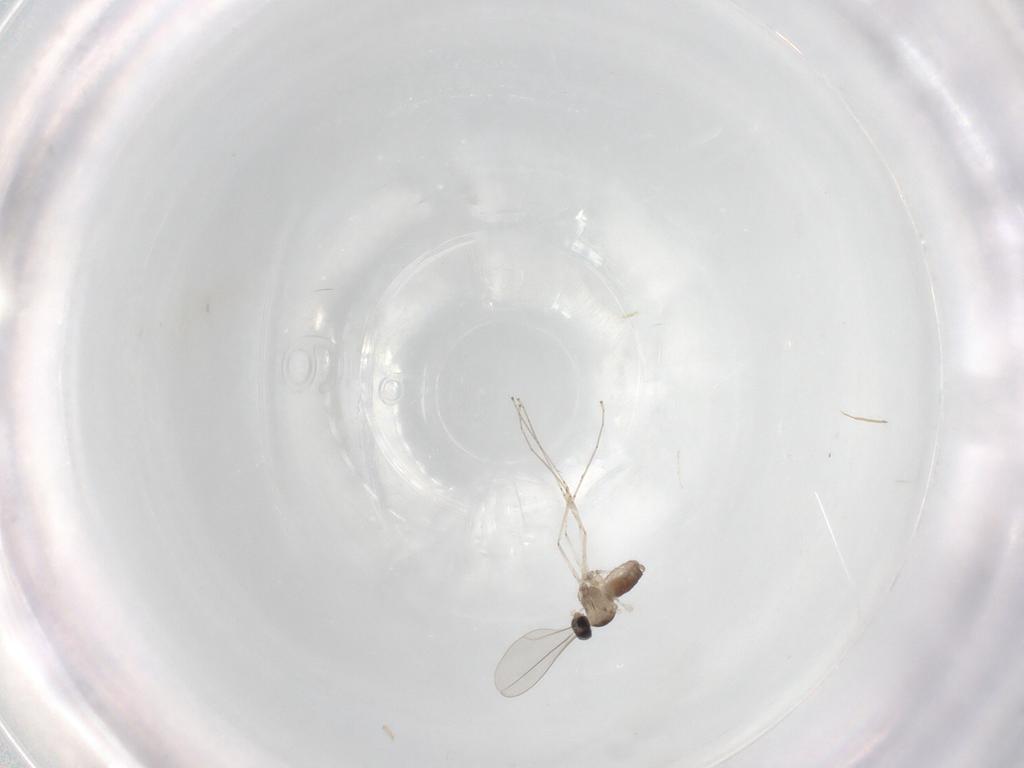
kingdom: Animalia
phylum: Arthropoda
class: Insecta
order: Diptera
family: Cecidomyiidae
